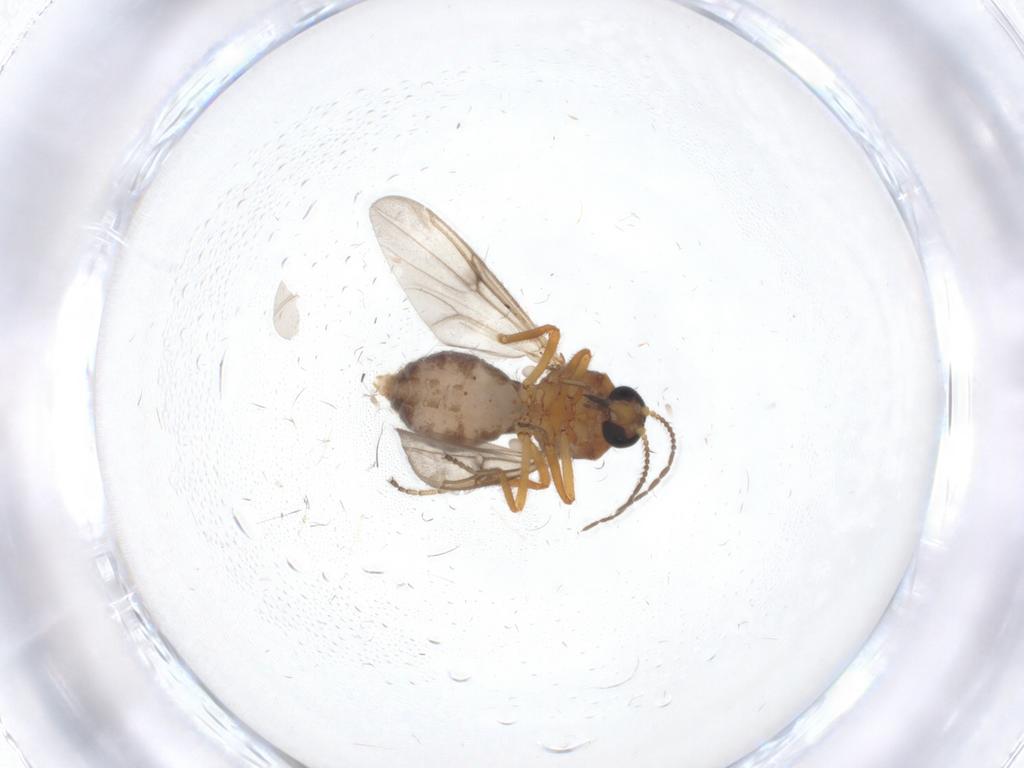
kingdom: Animalia
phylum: Arthropoda
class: Insecta
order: Diptera
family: Ceratopogonidae
